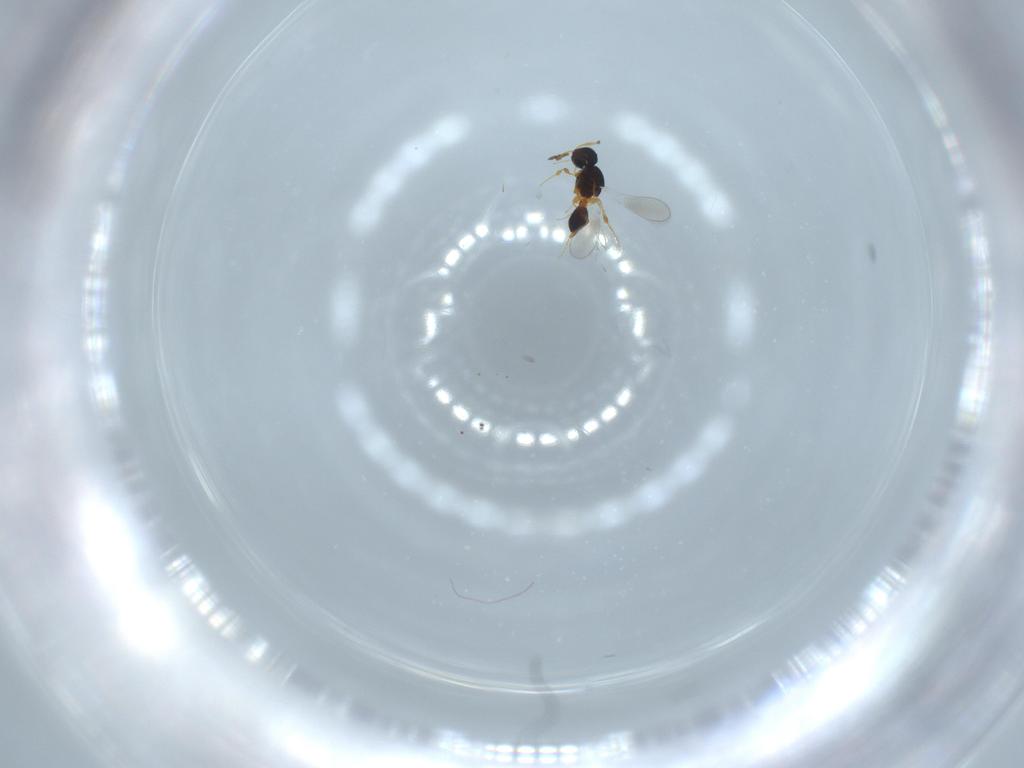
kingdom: Animalia
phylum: Arthropoda
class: Insecta
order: Hymenoptera
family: Platygastridae
